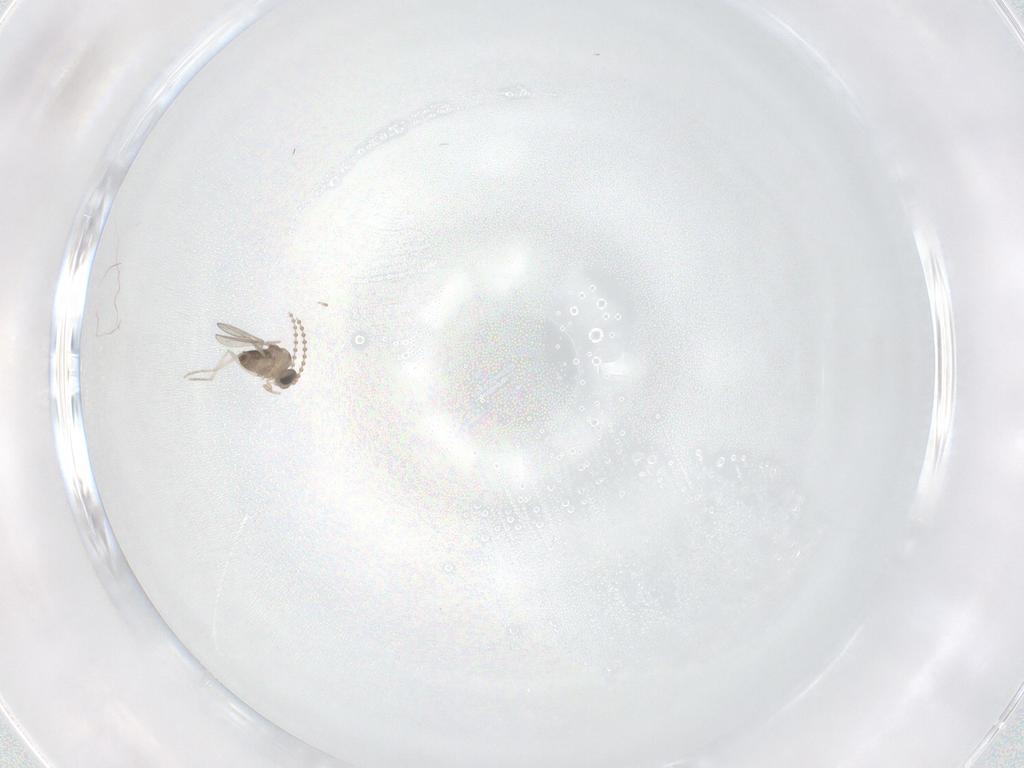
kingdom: Animalia
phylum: Arthropoda
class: Insecta
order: Diptera
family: Cecidomyiidae
